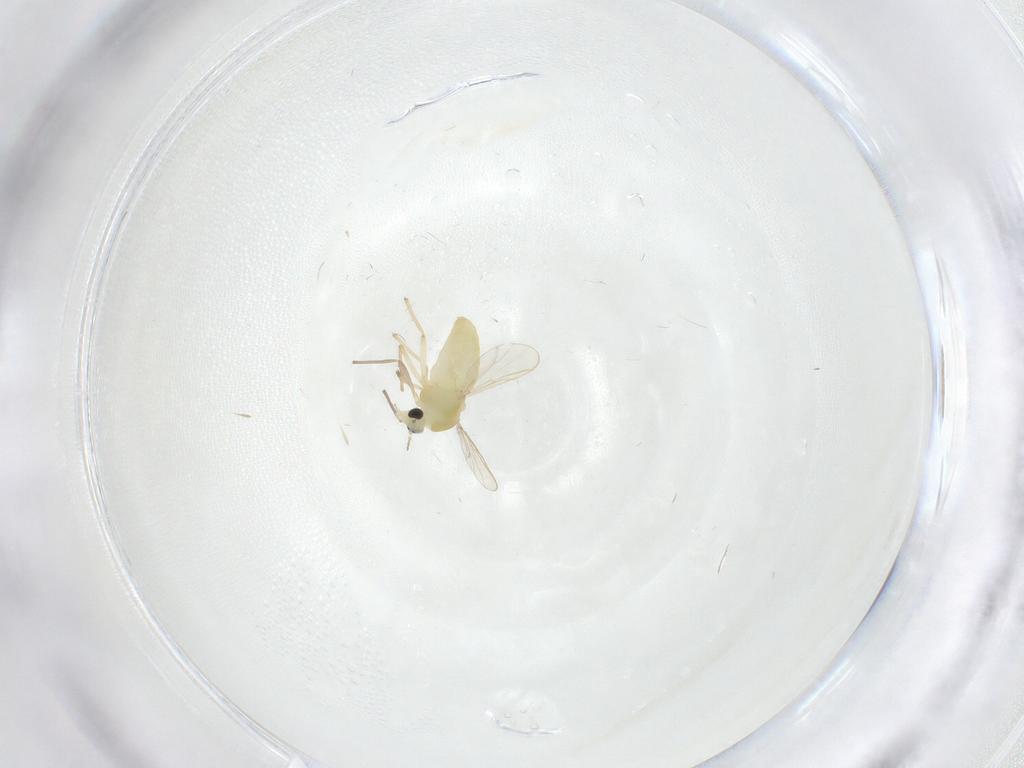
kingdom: Animalia
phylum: Arthropoda
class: Insecta
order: Diptera
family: Chironomidae
